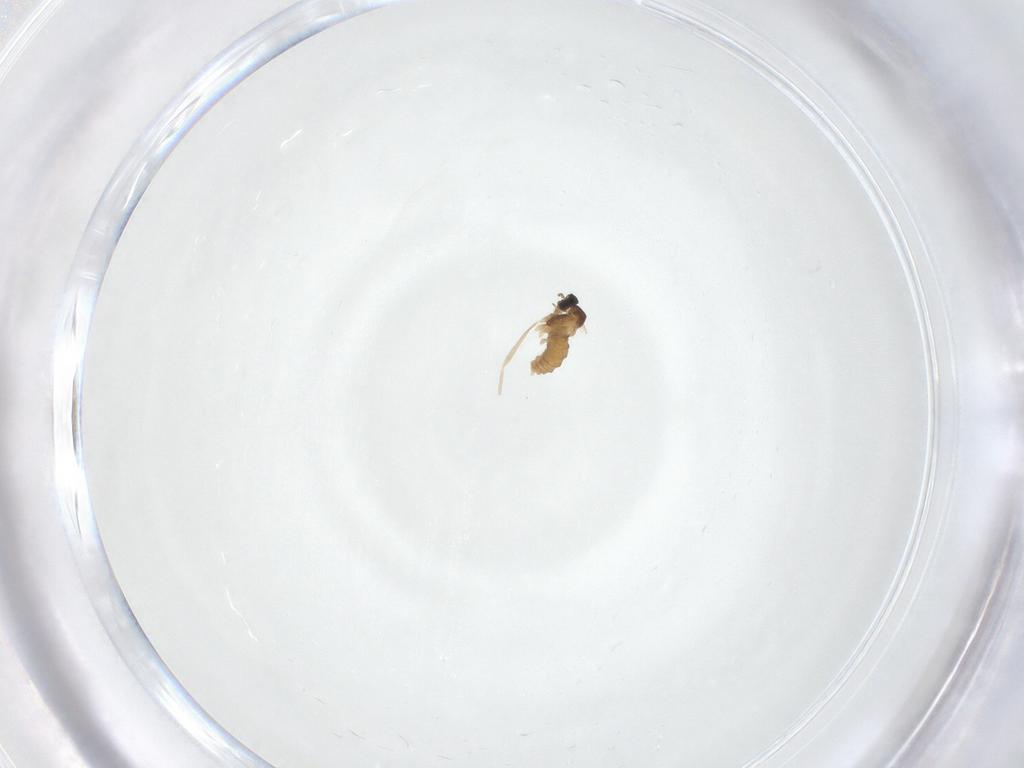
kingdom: Animalia
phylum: Arthropoda
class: Insecta
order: Diptera
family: Cecidomyiidae
